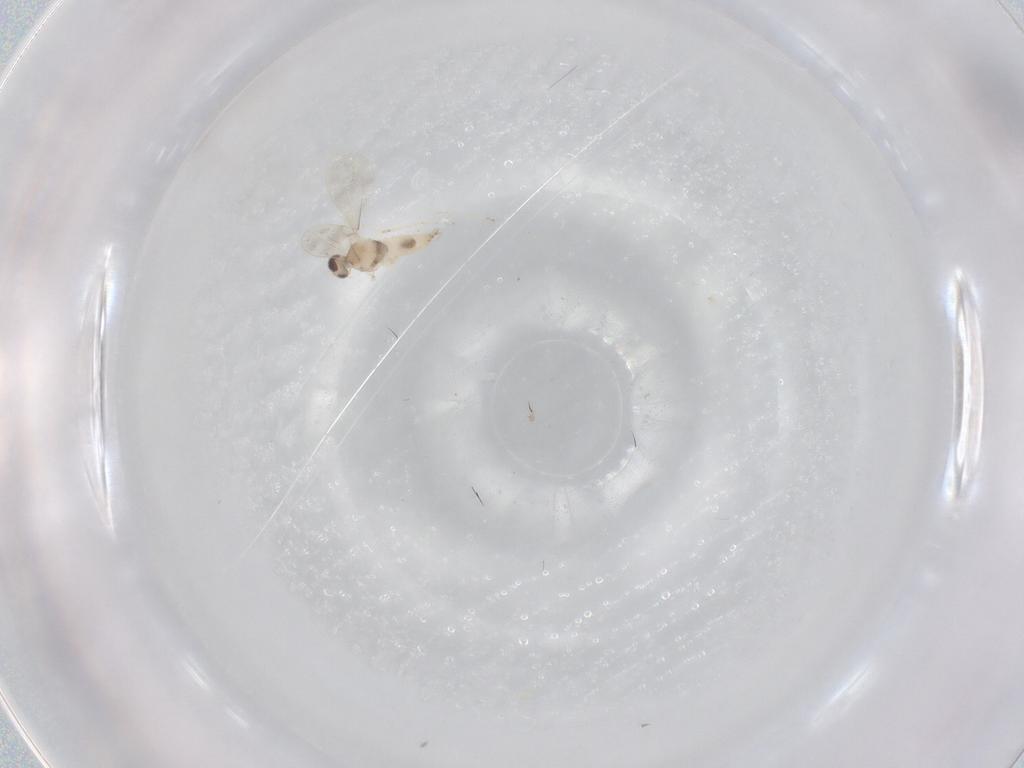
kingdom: Animalia
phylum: Arthropoda
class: Insecta
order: Diptera
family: Cecidomyiidae
